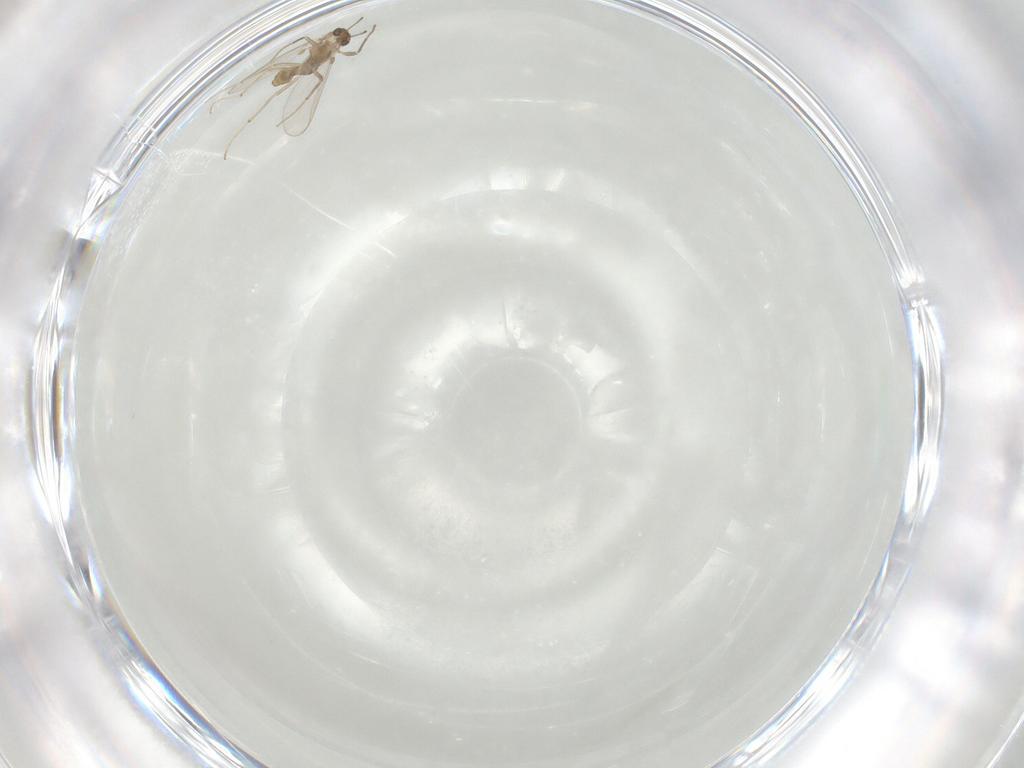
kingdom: Animalia
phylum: Arthropoda
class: Insecta
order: Diptera
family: Cecidomyiidae
